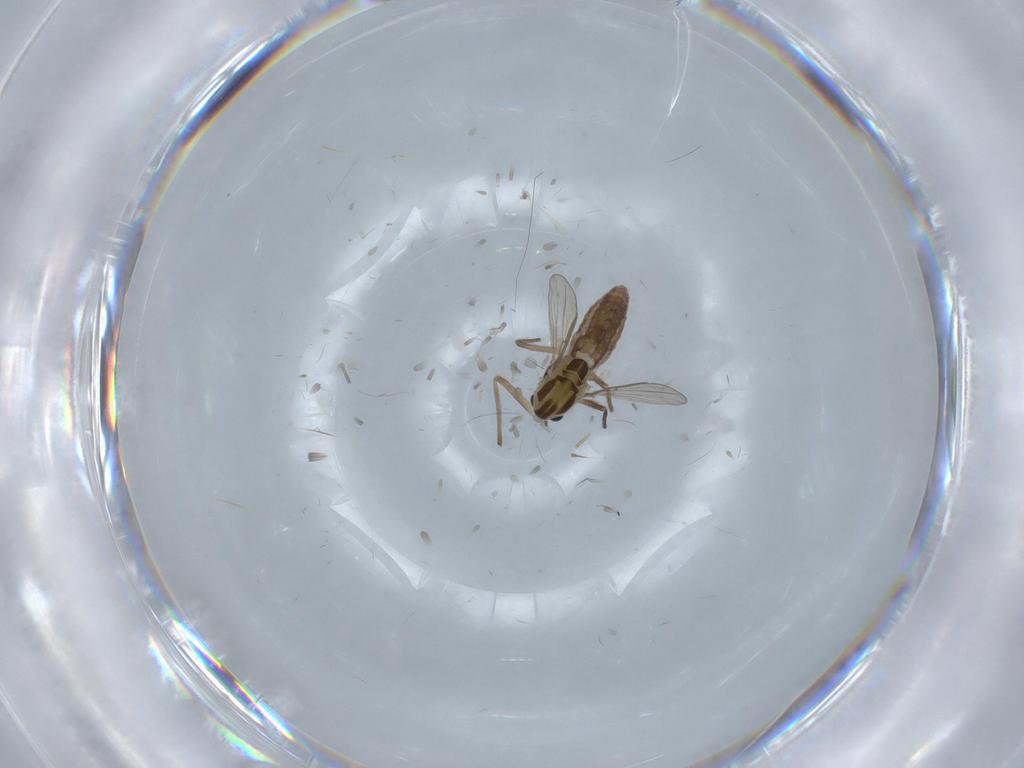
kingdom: Animalia
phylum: Arthropoda
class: Insecta
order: Diptera
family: Chironomidae
